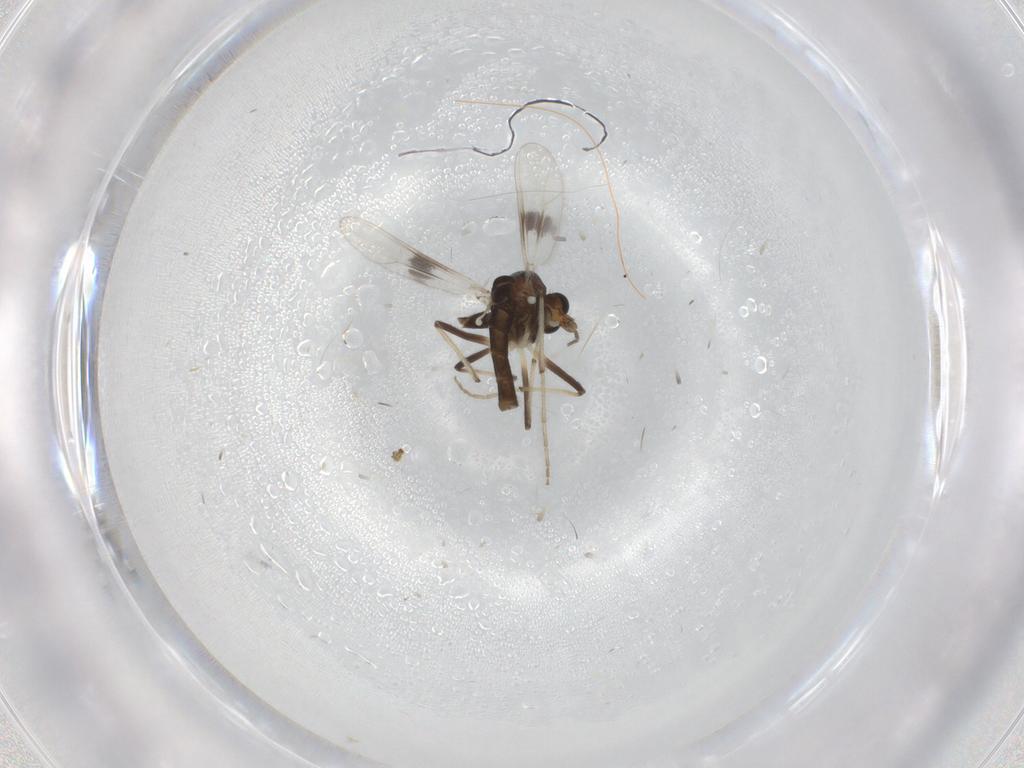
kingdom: Animalia
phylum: Arthropoda
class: Insecta
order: Diptera
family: Chironomidae
